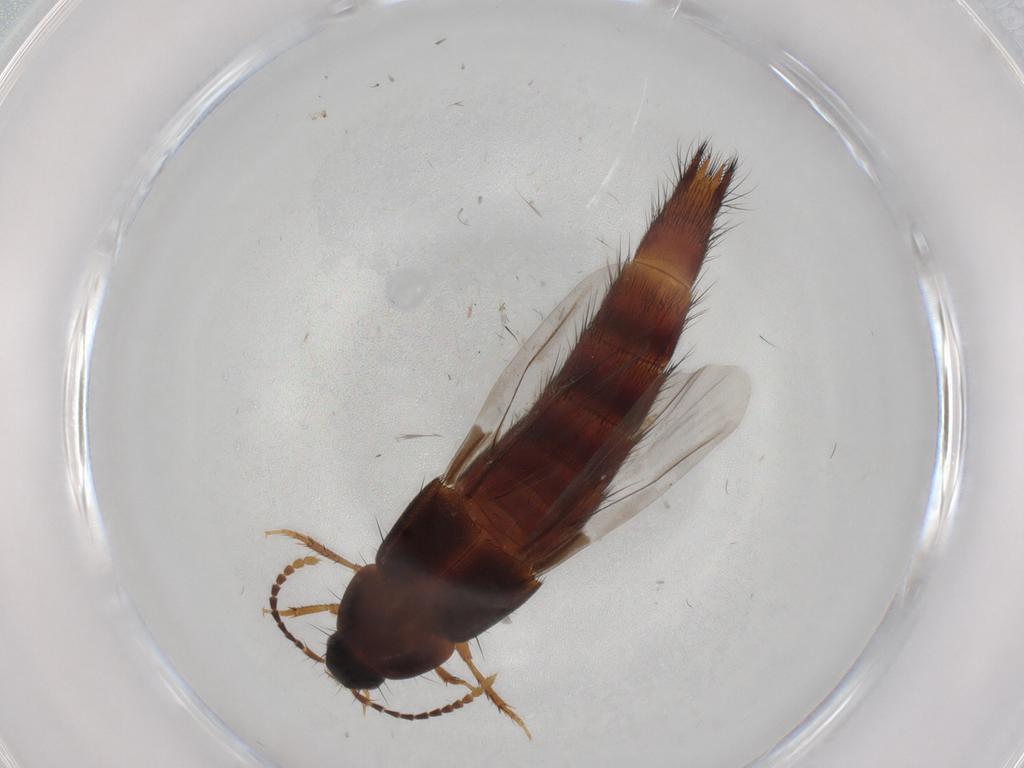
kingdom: Animalia
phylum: Arthropoda
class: Insecta
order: Coleoptera
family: Staphylinidae
